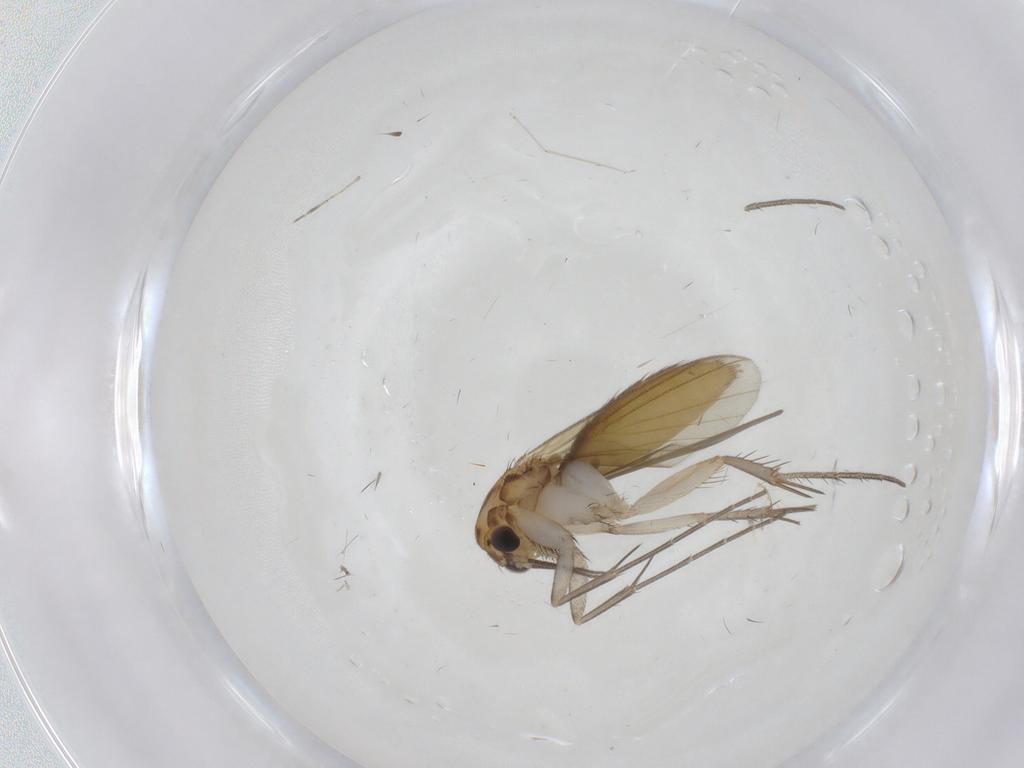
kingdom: Animalia
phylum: Arthropoda
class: Insecta
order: Diptera
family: Mycetophilidae
